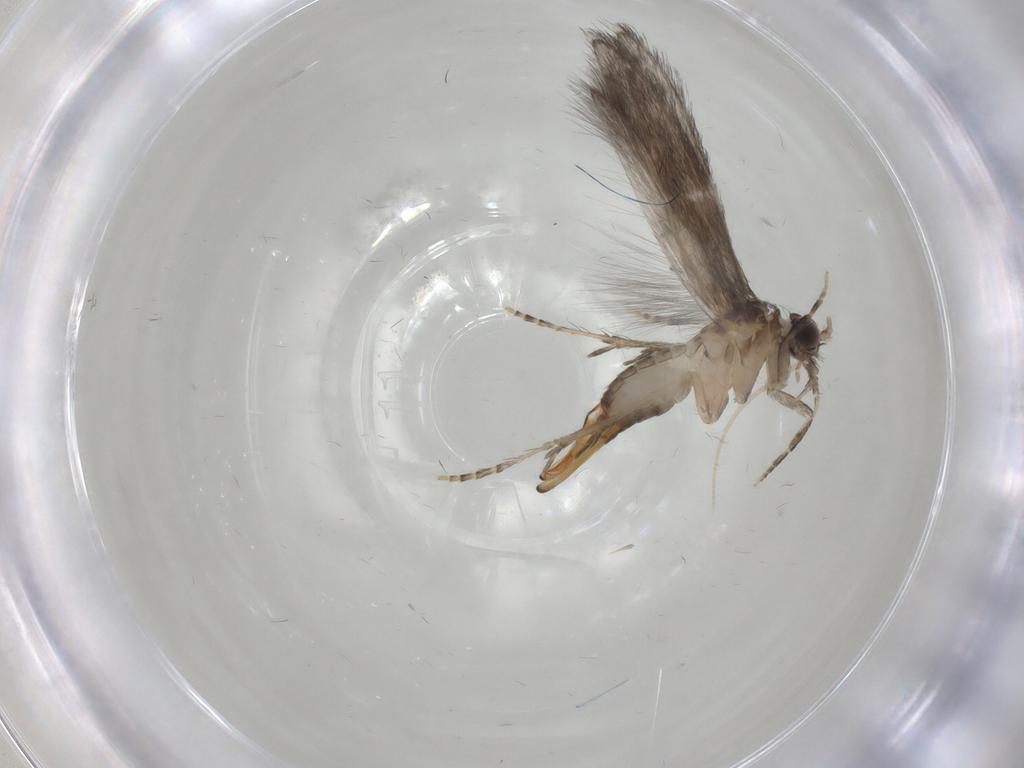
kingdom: Animalia
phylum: Arthropoda
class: Insecta
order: Trichoptera
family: Hydroptilidae
